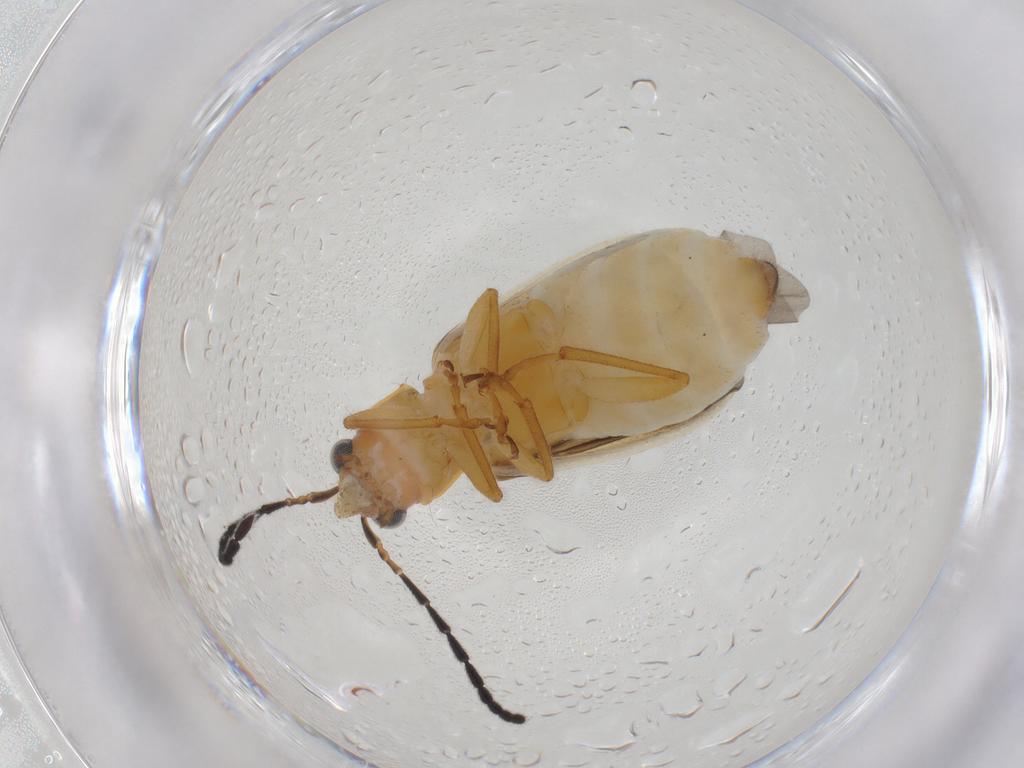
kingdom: Animalia
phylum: Arthropoda
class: Insecta
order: Coleoptera
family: Chrysomelidae
